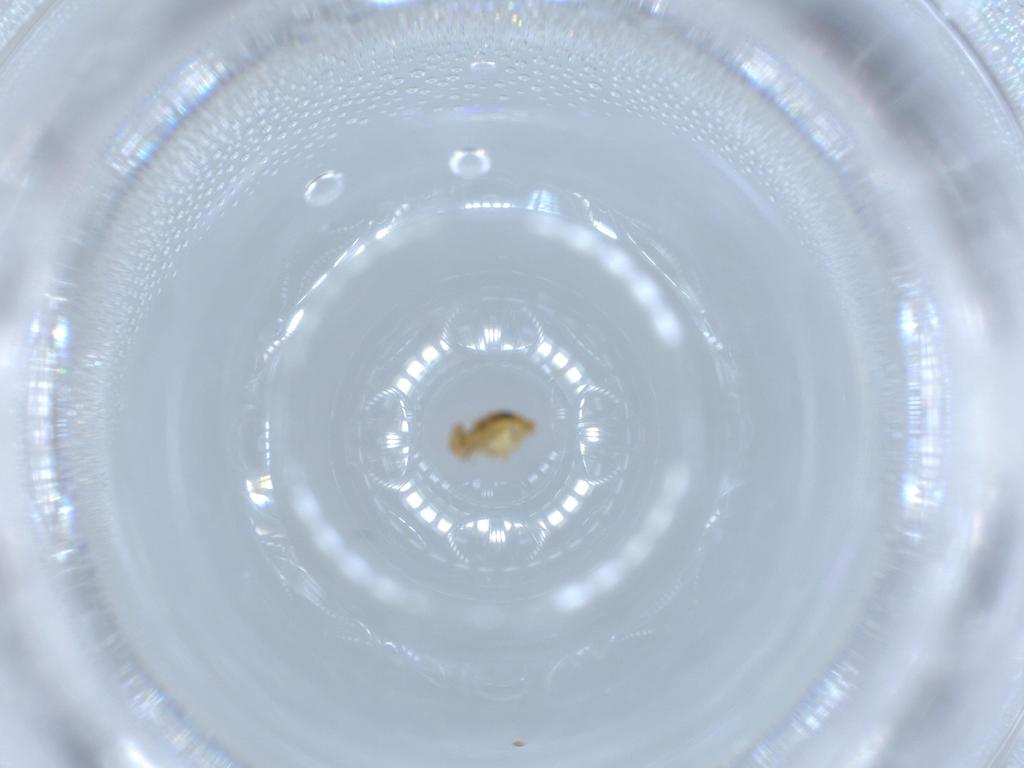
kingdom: Animalia
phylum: Arthropoda
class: Collembola
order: Symphypleona
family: Katiannidae
